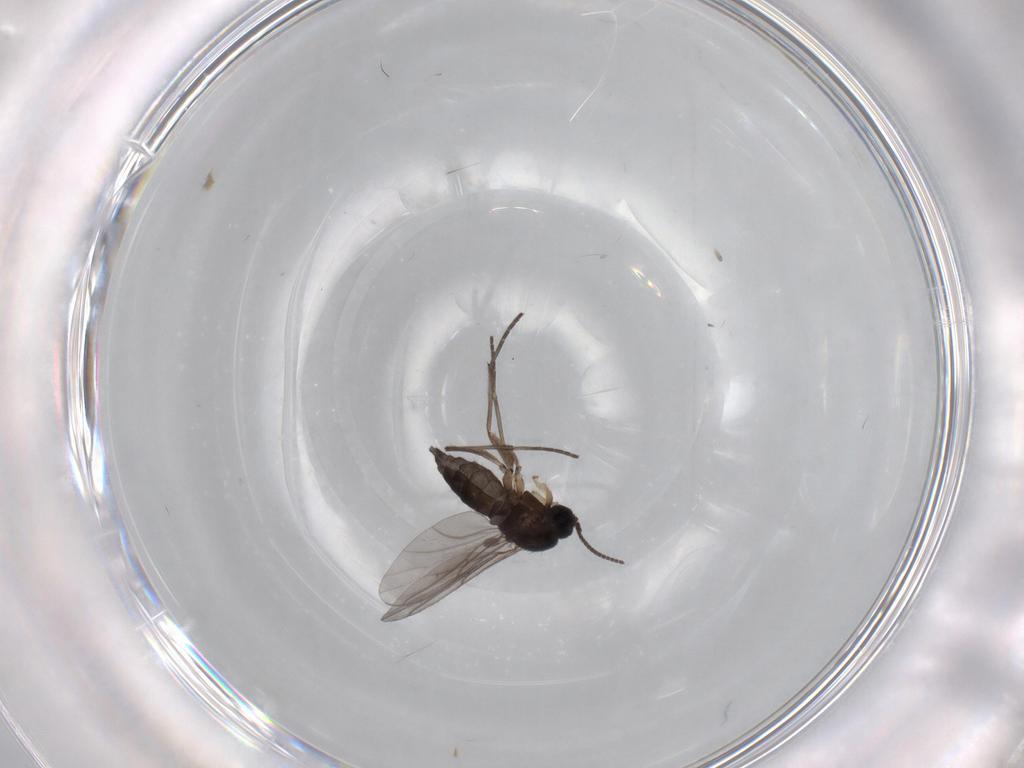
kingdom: Animalia
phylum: Arthropoda
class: Insecta
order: Diptera
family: Sciaridae
